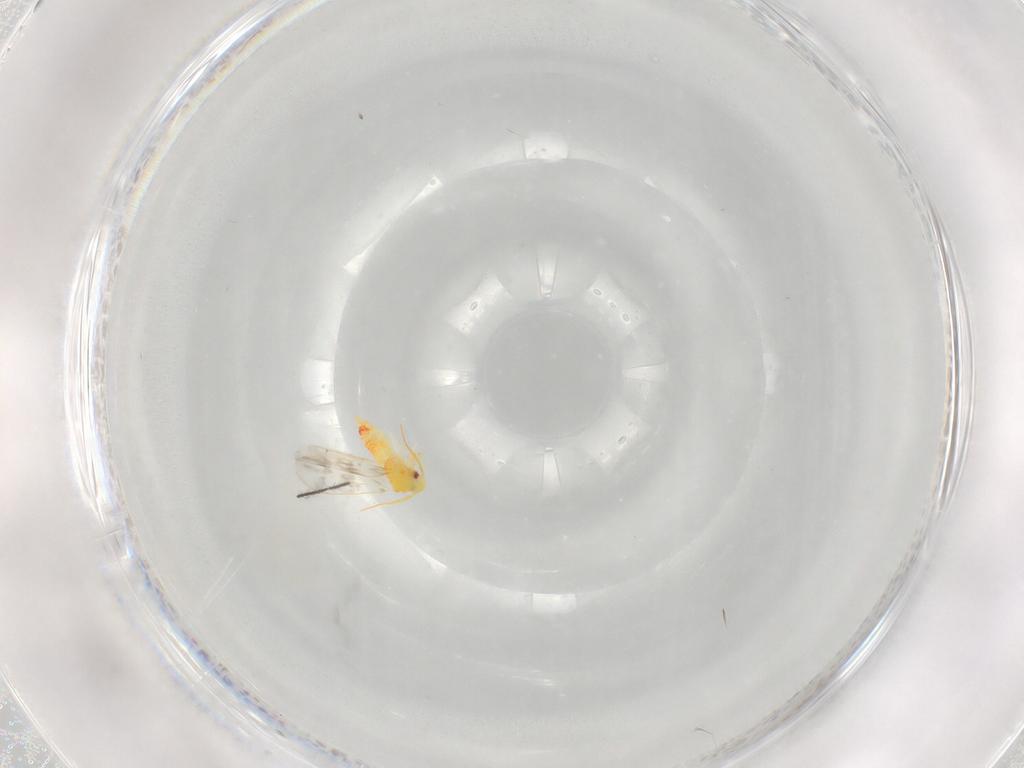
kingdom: Animalia
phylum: Arthropoda
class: Insecta
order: Hemiptera
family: Aleyrodidae
